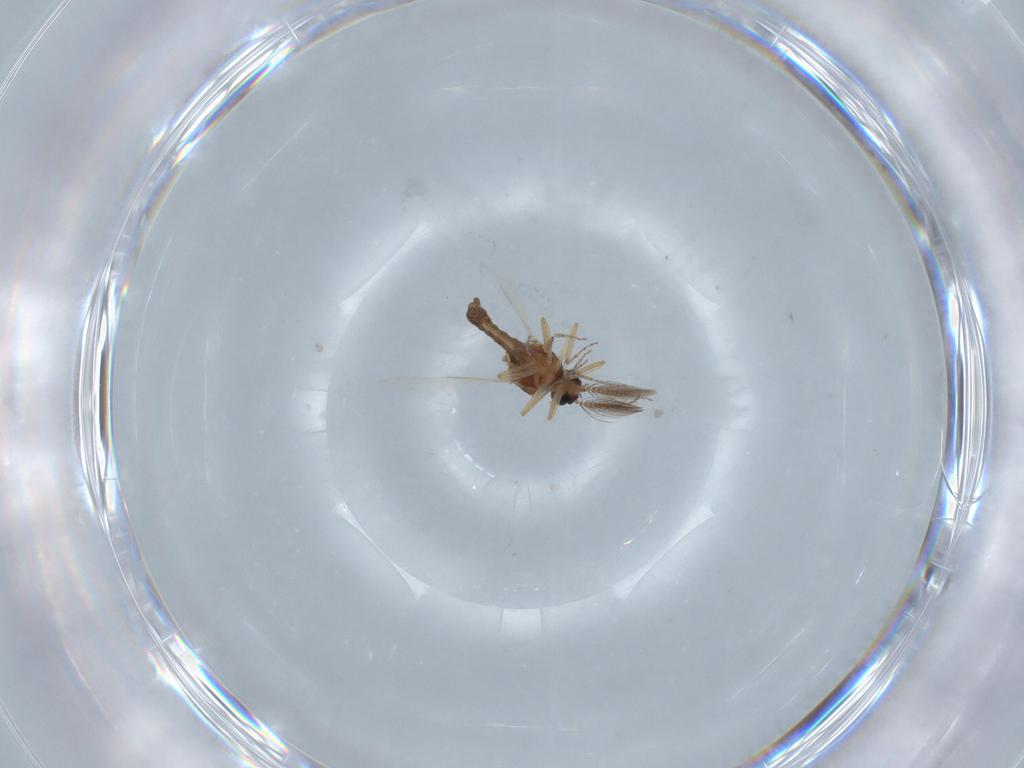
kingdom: Animalia
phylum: Arthropoda
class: Insecta
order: Diptera
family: Ceratopogonidae
